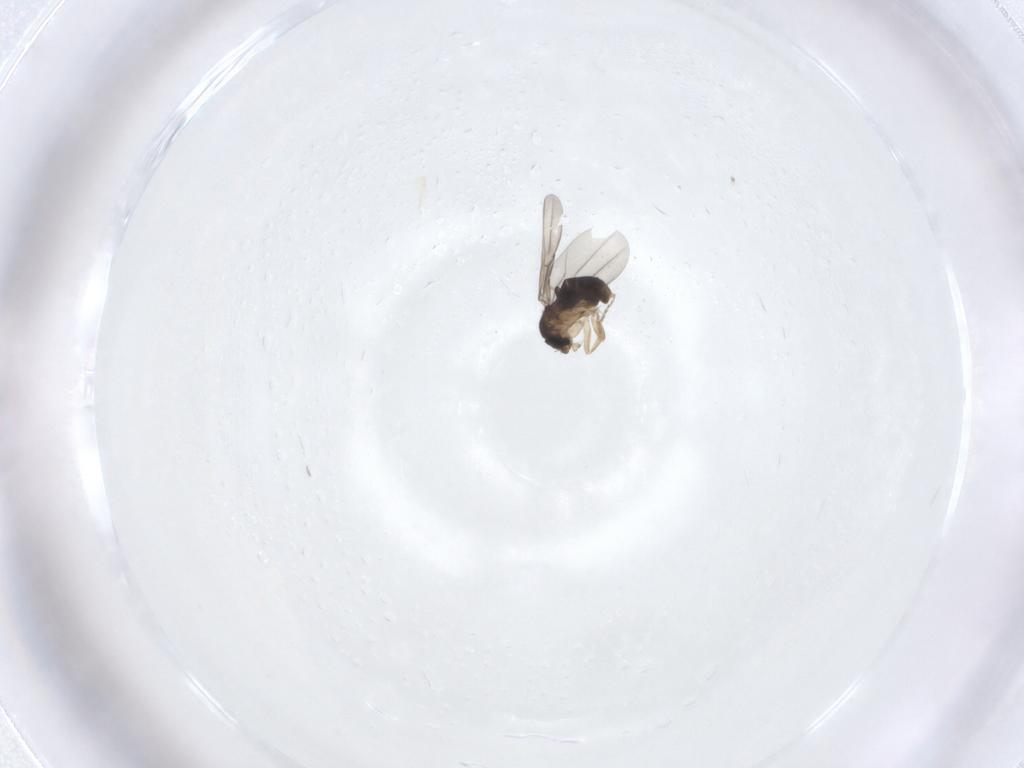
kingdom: Animalia
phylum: Arthropoda
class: Insecta
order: Diptera
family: Phoridae
